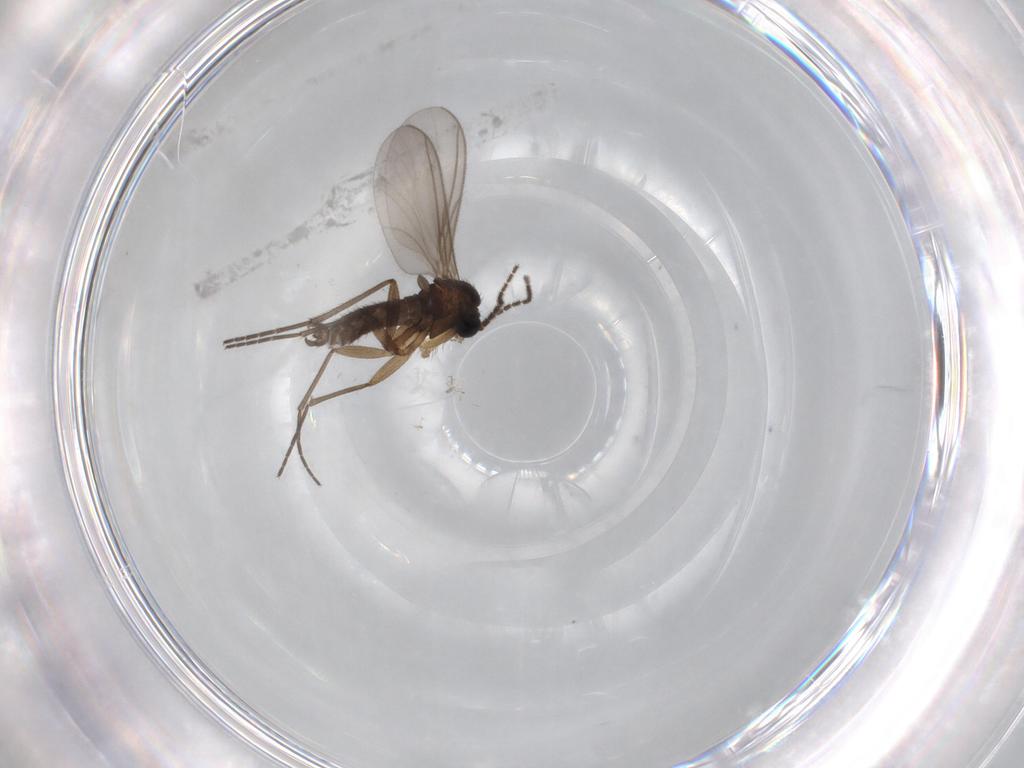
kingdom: Animalia
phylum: Arthropoda
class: Insecta
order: Diptera
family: Sciaridae
